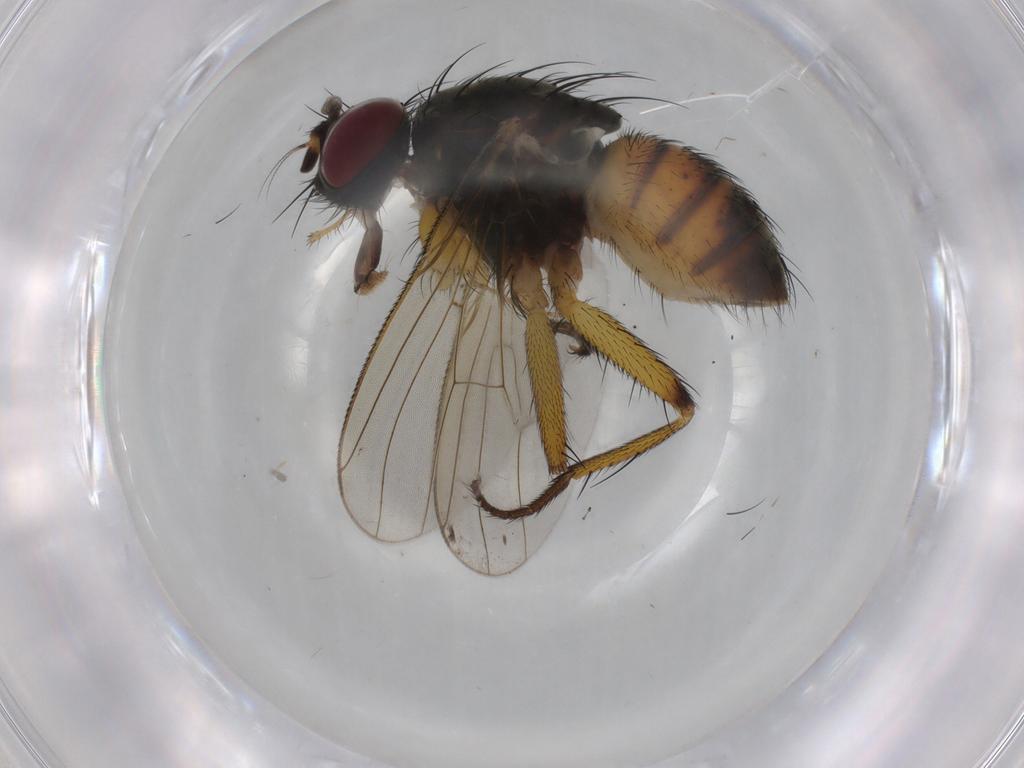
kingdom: Animalia
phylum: Arthropoda
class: Insecta
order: Diptera
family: Muscidae
